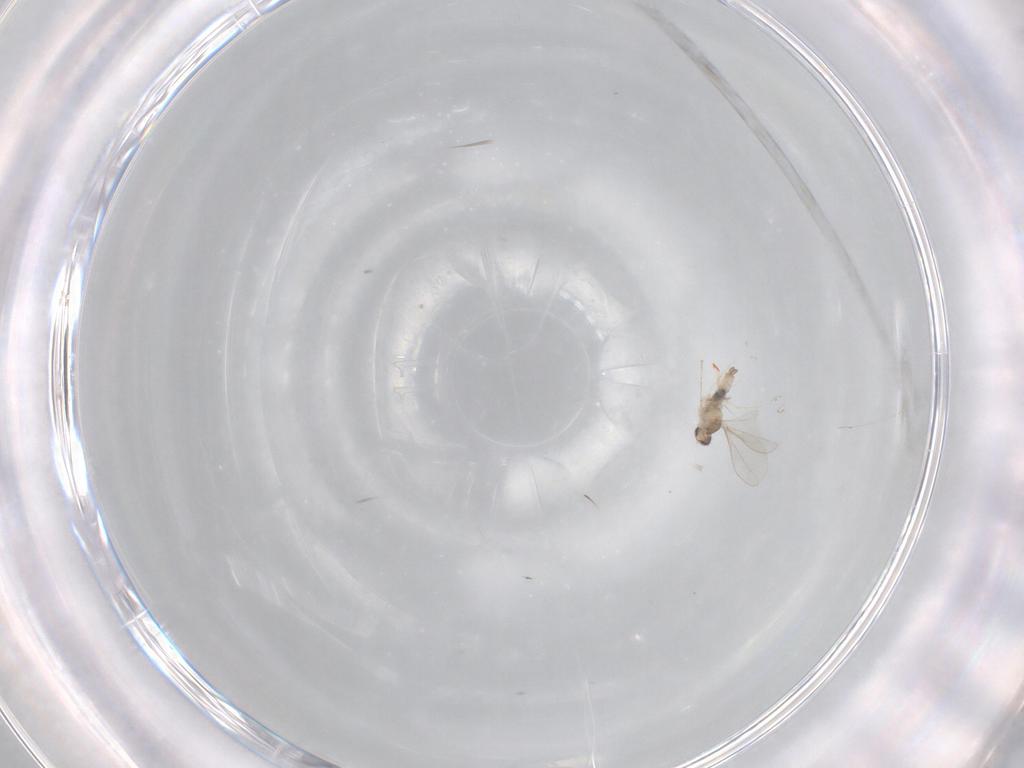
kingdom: Animalia
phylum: Arthropoda
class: Insecta
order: Diptera
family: Cecidomyiidae
